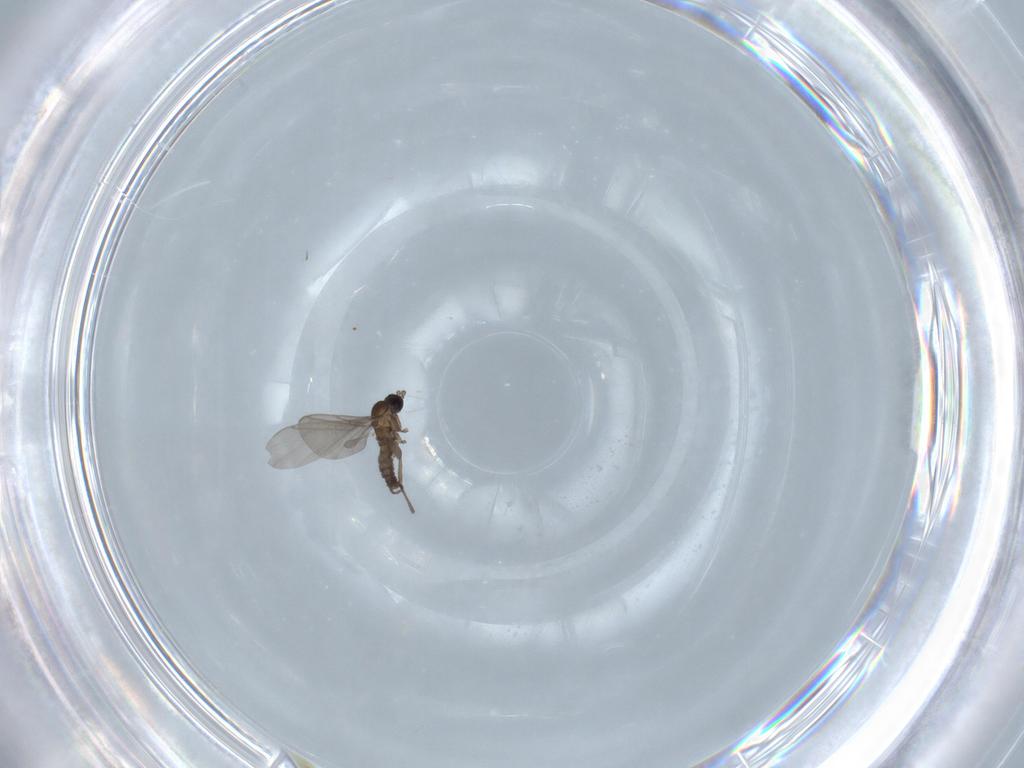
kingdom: Animalia
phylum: Arthropoda
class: Insecta
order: Diptera
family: Cecidomyiidae
